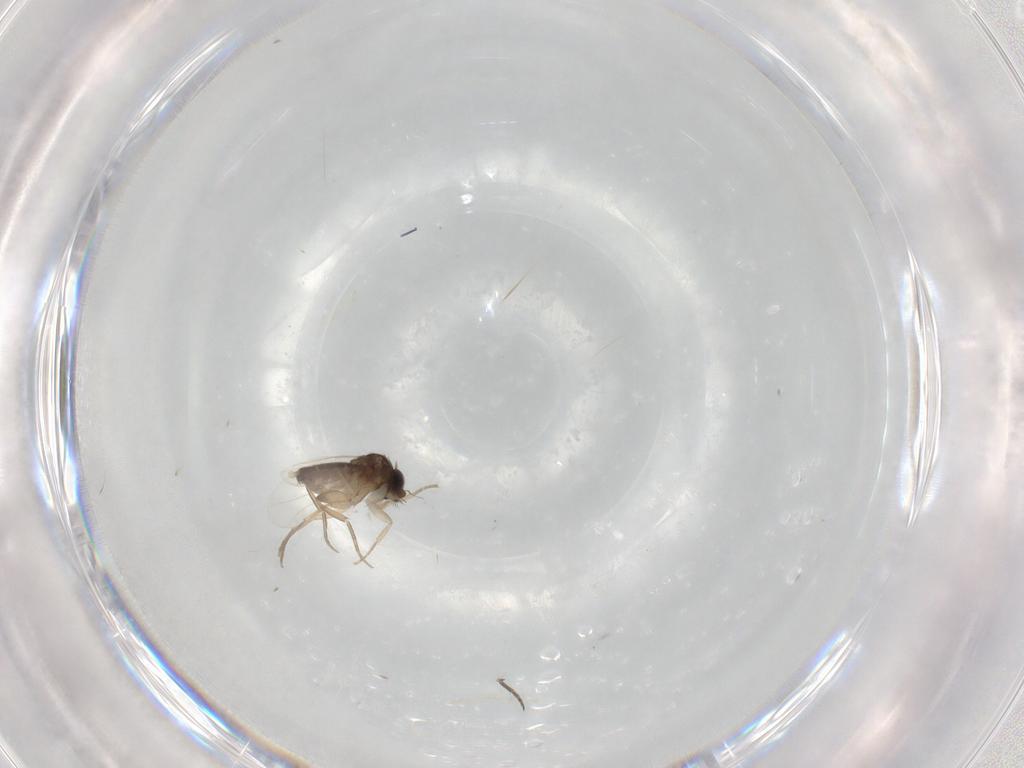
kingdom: Animalia
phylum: Arthropoda
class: Insecta
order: Diptera
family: Phoridae
